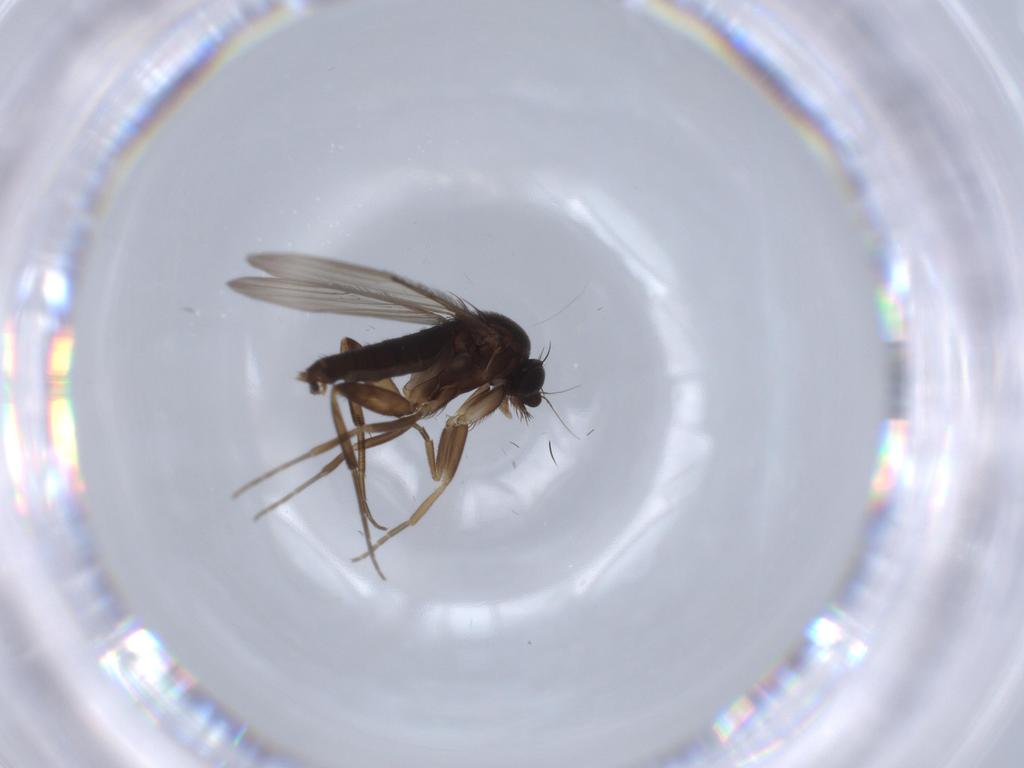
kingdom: Animalia
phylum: Arthropoda
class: Insecta
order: Diptera
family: Phoridae
